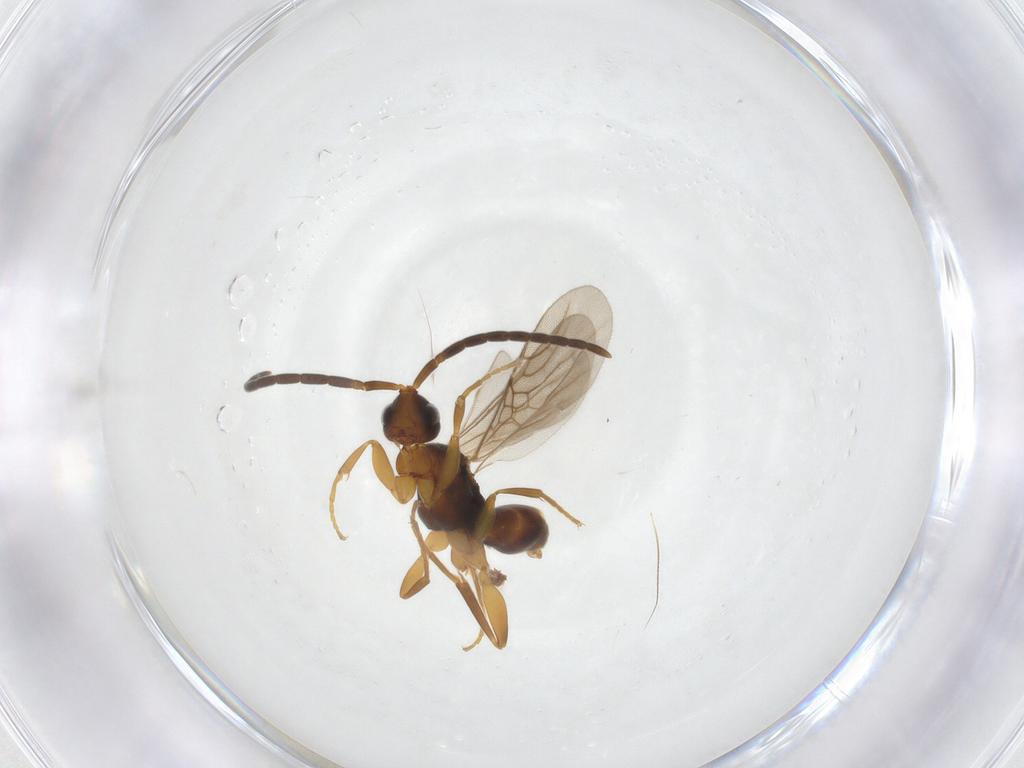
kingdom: Animalia
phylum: Arthropoda
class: Insecta
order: Hymenoptera
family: Embolemidae
